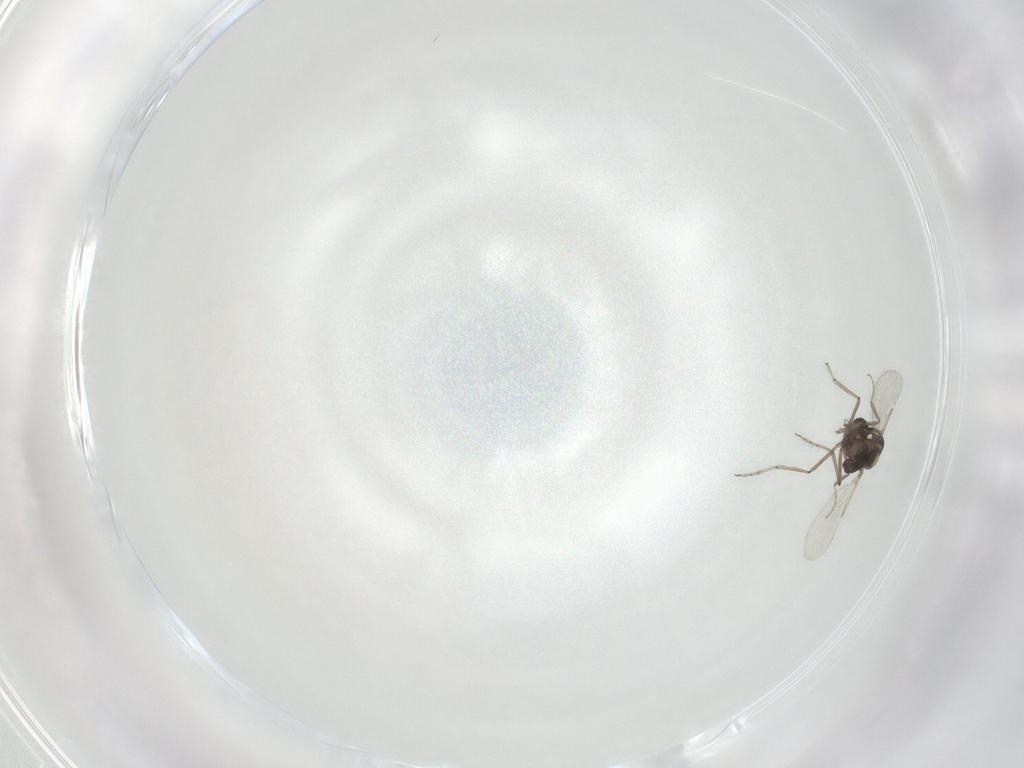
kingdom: Animalia
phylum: Arthropoda
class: Insecta
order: Diptera
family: Ceratopogonidae
